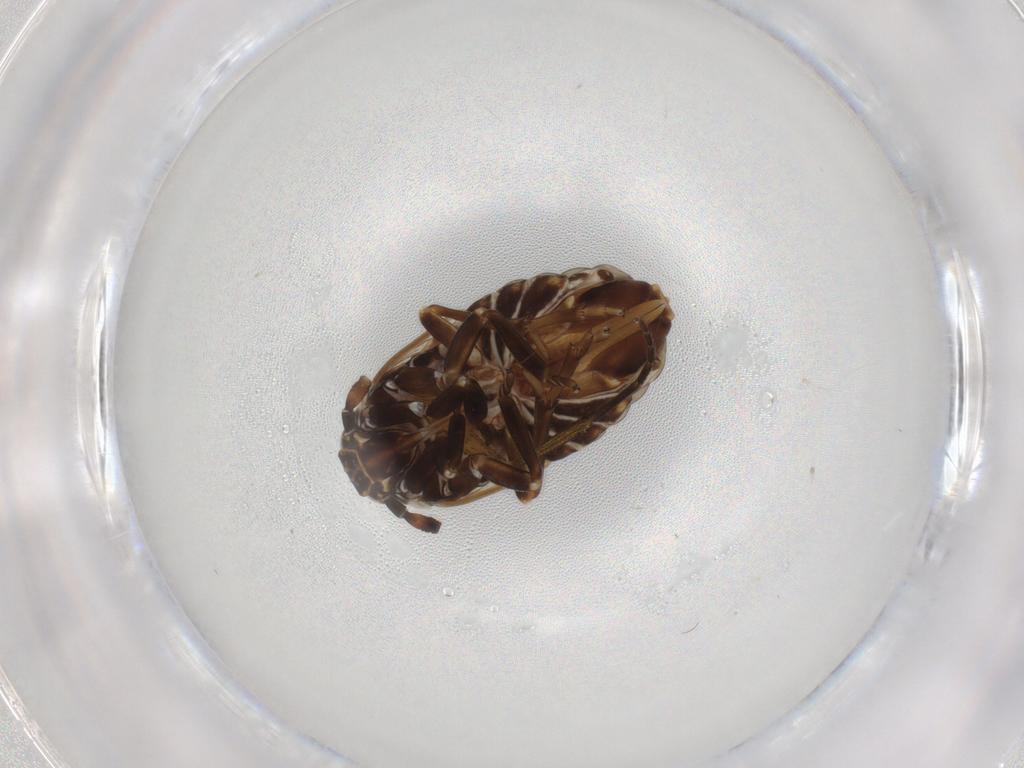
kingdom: Animalia
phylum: Arthropoda
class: Insecta
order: Hemiptera
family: Delphacidae
